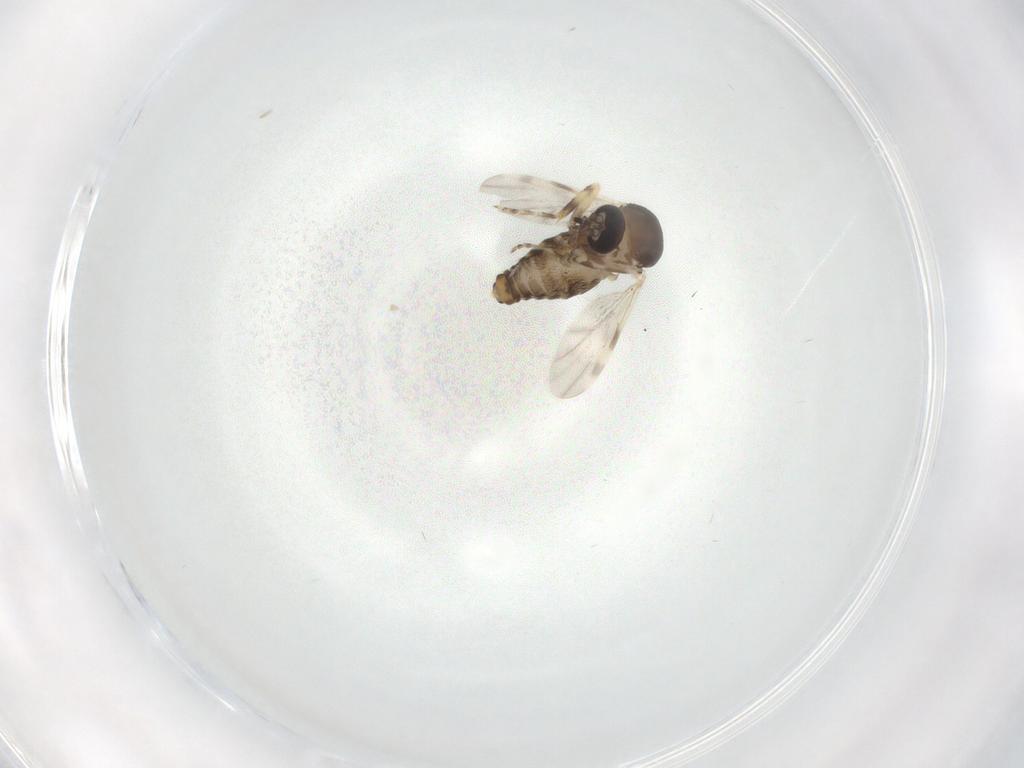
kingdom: Animalia
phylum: Arthropoda
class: Insecta
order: Diptera
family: Ceratopogonidae
